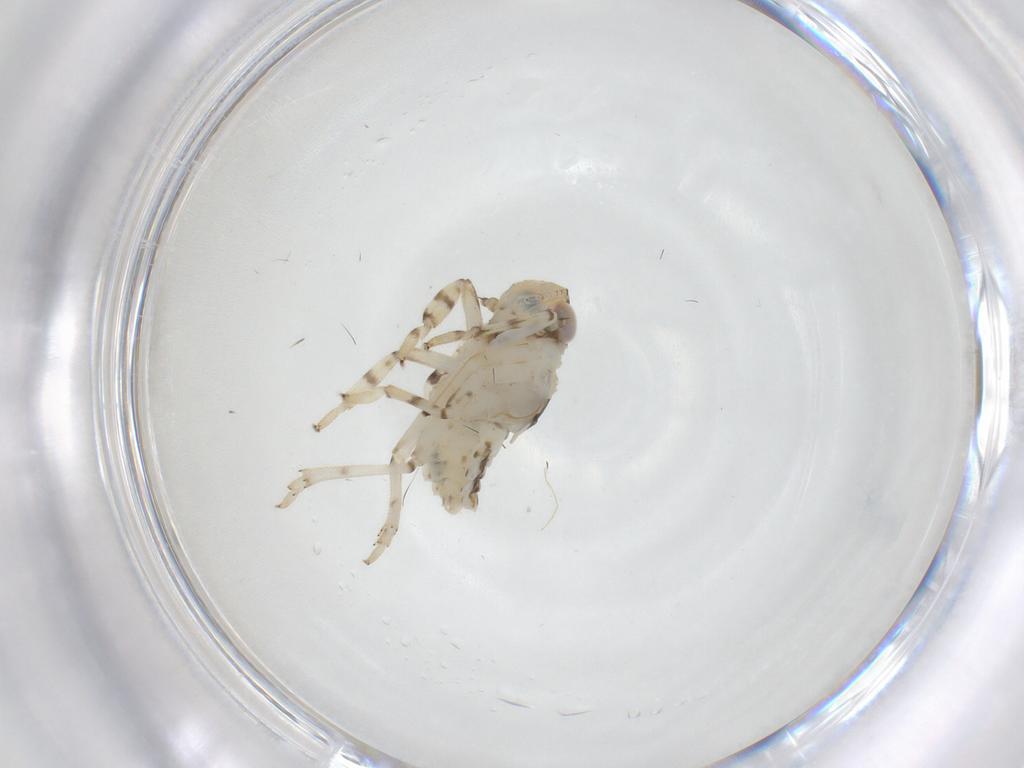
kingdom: Animalia
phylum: Arthropoda
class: Insecta
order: Hemiptera
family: Issidae
